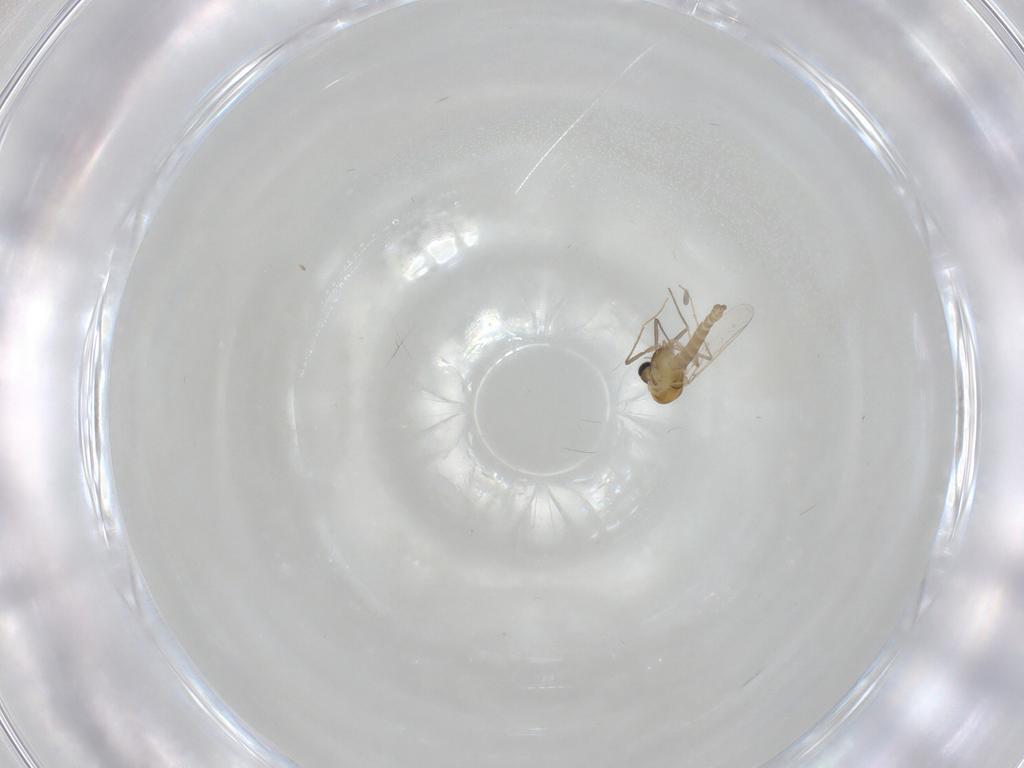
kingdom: Animalia
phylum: Arthropoda
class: Insecta
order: Diptera
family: Chironomidae
